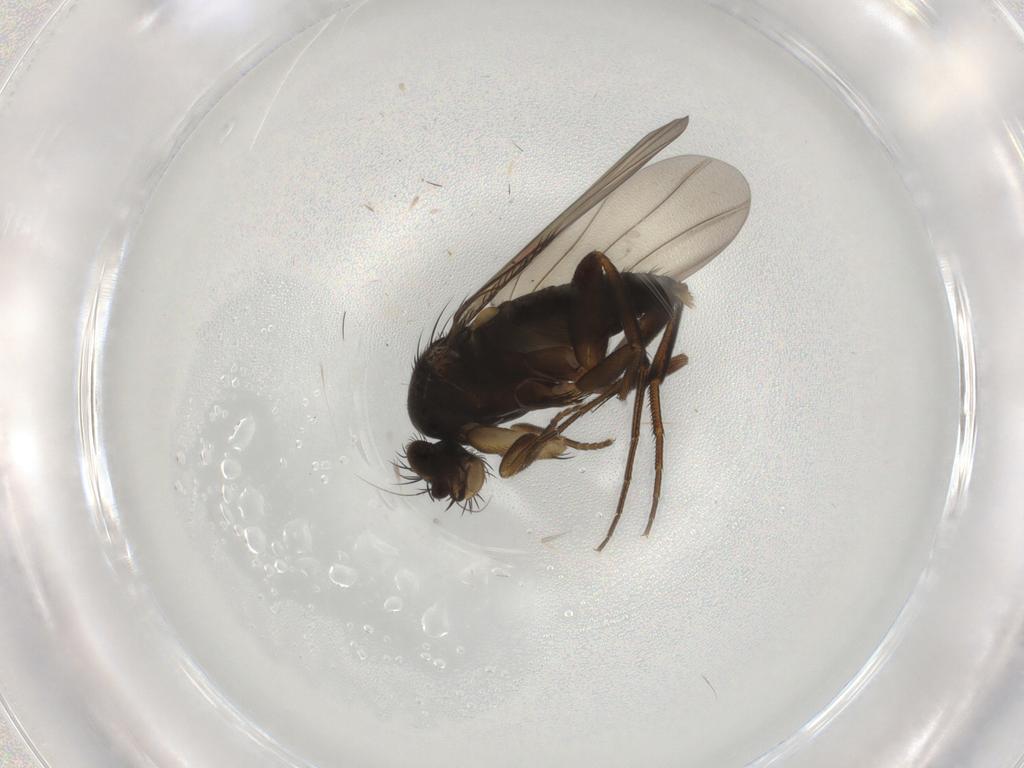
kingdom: Animalia
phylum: Arthropoda
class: Insecta
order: Diptera
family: Phoridae
